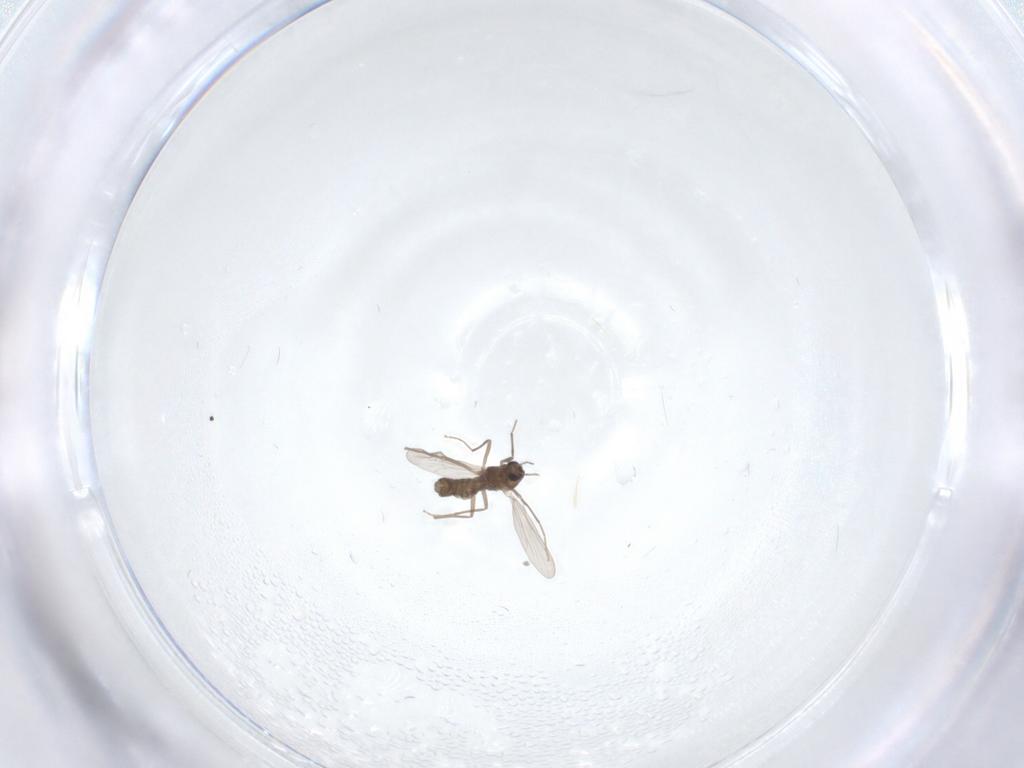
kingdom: Animalia
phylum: Arthropoda
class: Insecta
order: Diptera
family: Chironomidae
